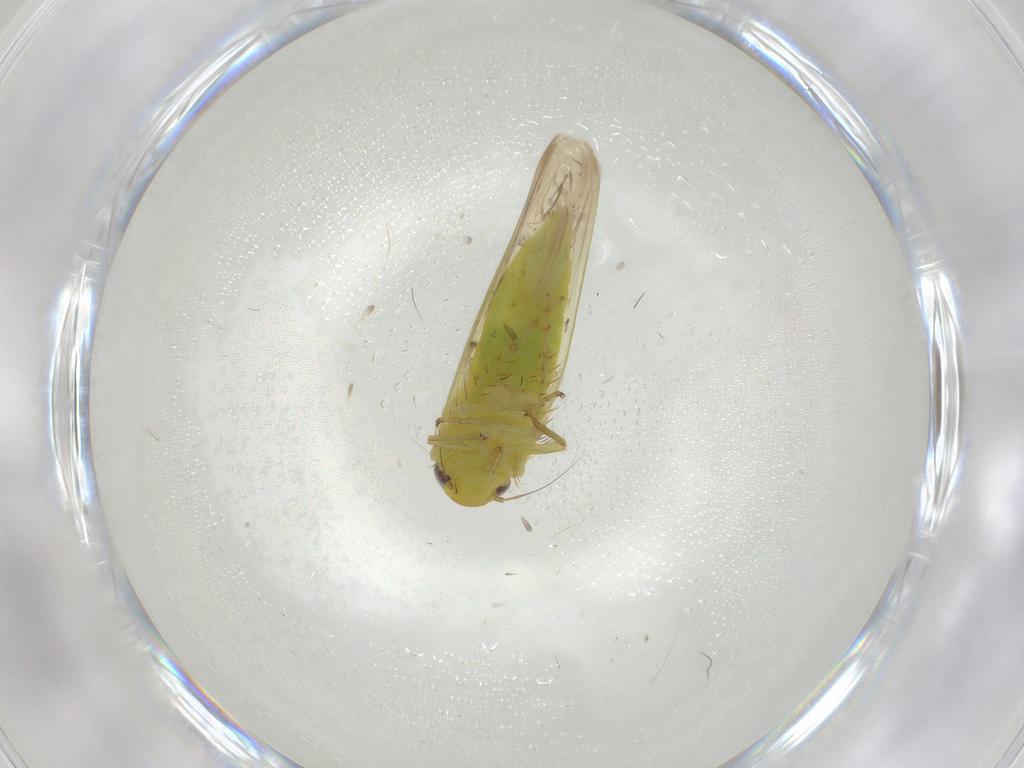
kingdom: Animalia
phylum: Arthropoda
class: Insecta
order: Hemiptera
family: Cicadellidae
